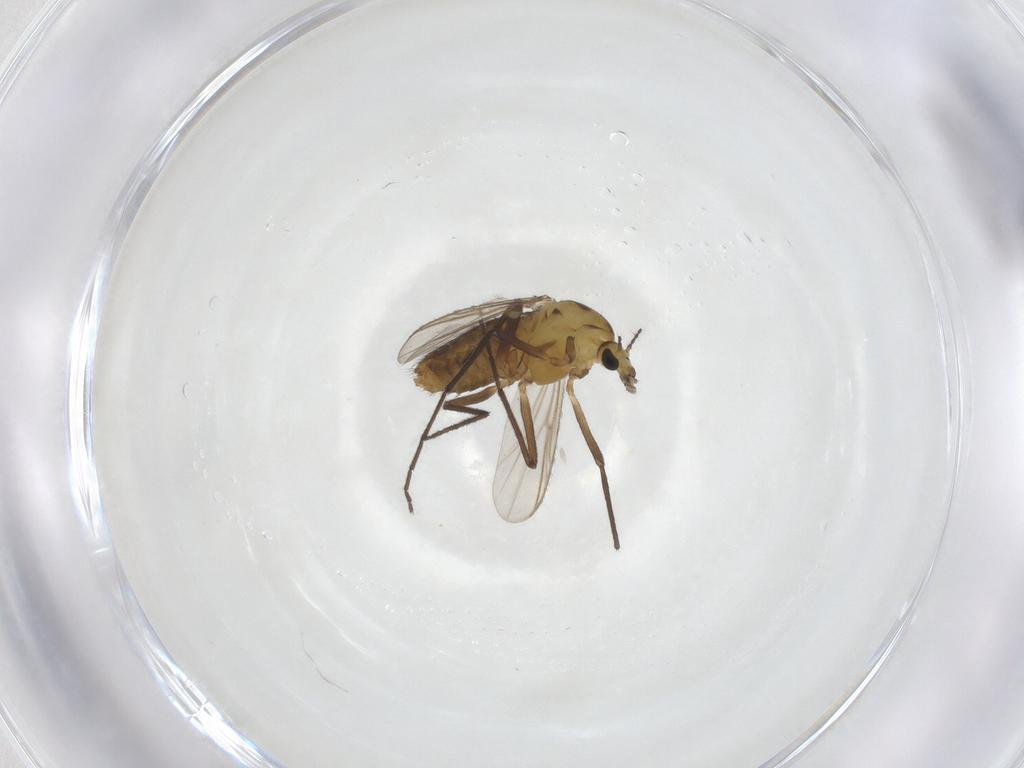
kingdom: Animalia
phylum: Arthropoda
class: Insecta
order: Diptera
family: Chironomidae
